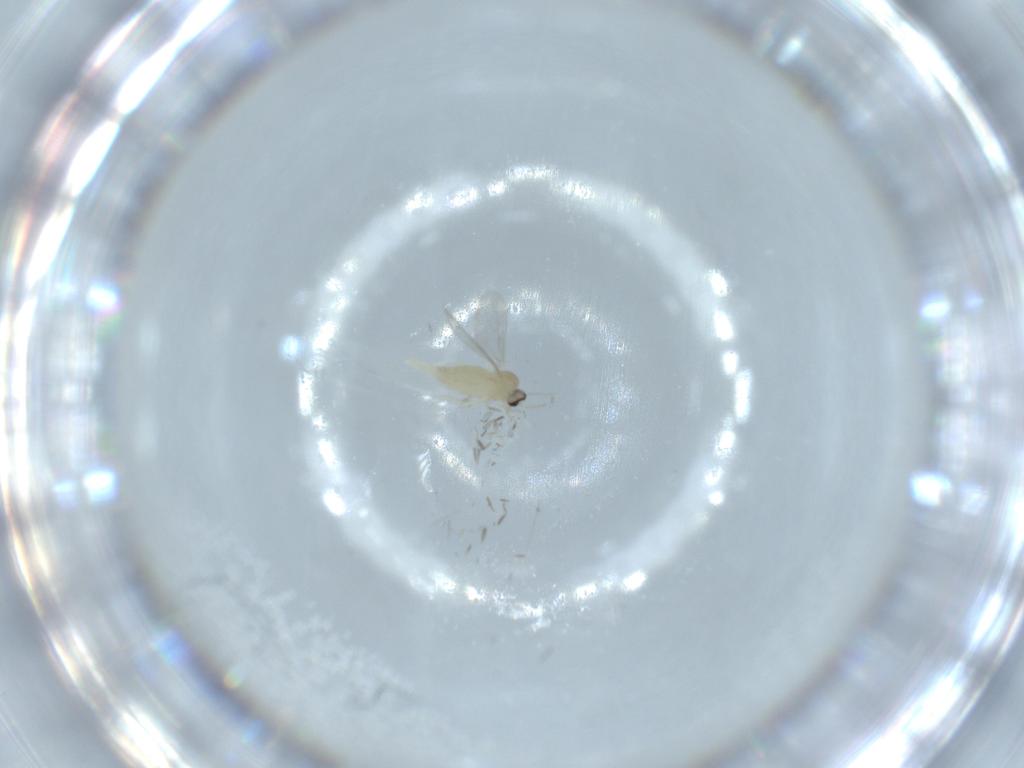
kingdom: Animalia
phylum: Arthropoda
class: Insecta
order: Diptera
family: Cecidomyiidae
